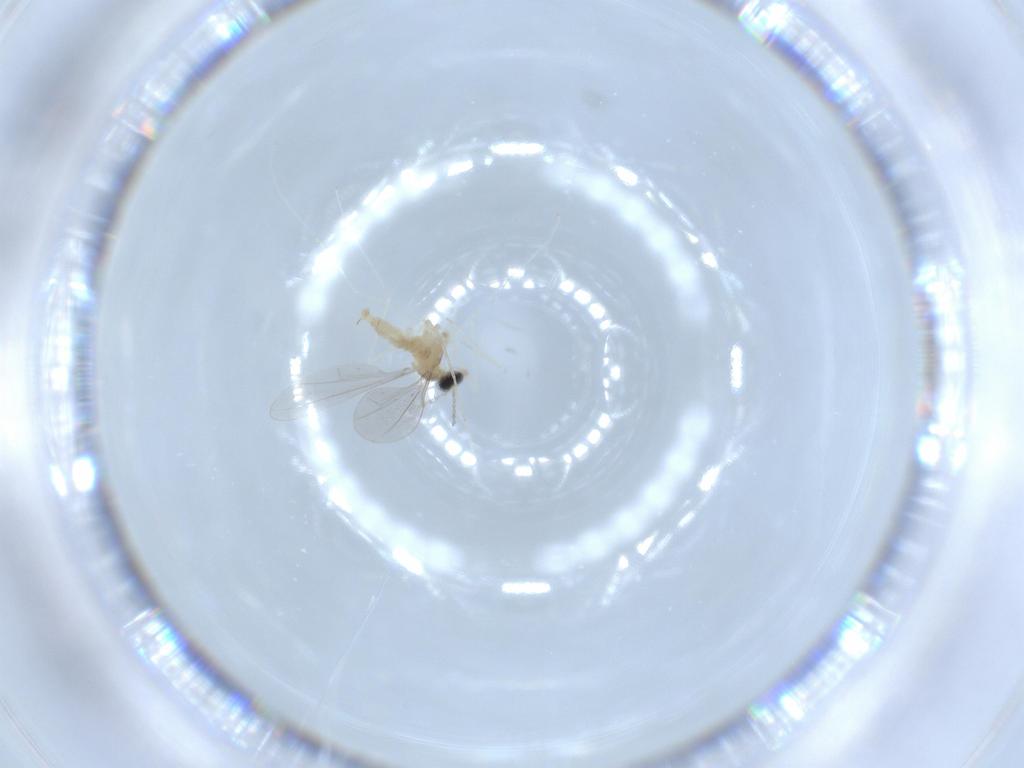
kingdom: Animalia
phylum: Arthropoda
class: Insecta
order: Diptera
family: Cecidomyiidae
